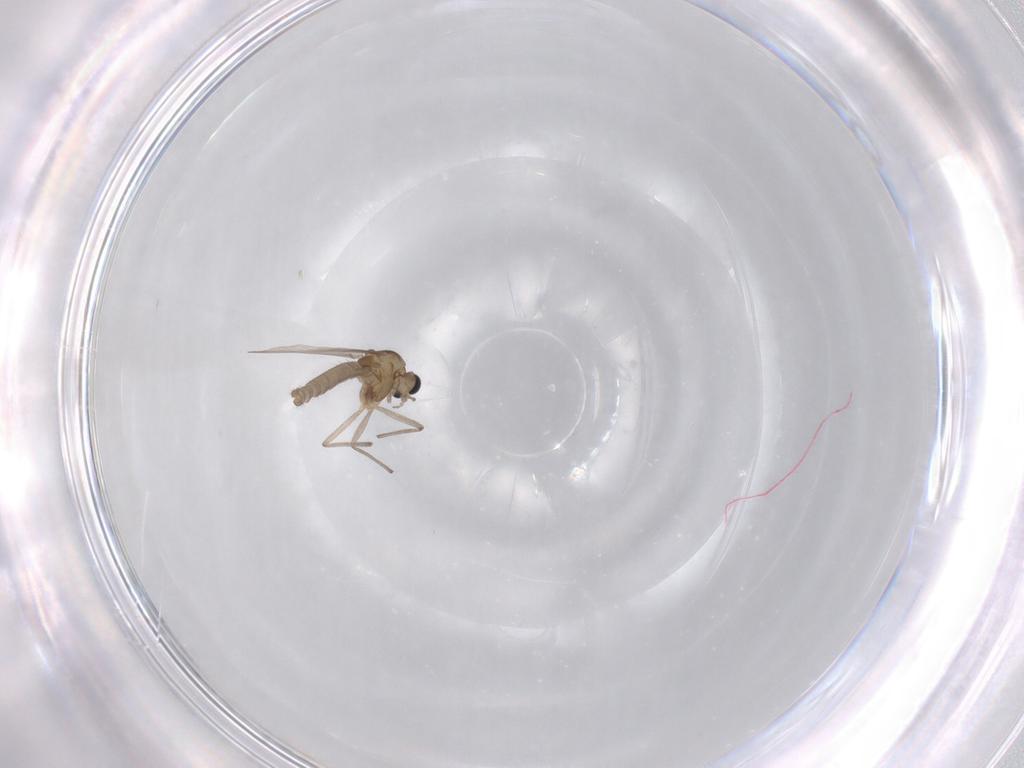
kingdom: Animalia
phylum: Arthropoda
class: Insecta
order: Diptera
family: Chironomidae
